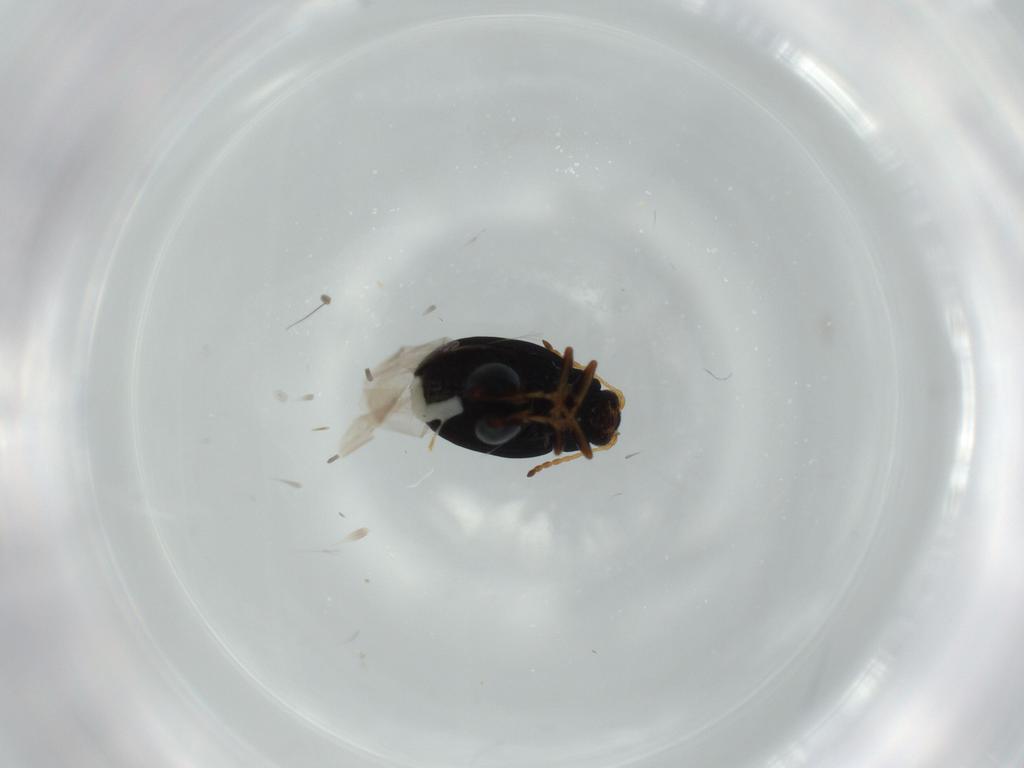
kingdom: Animalia
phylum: Arthropoda
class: Insecta
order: Coleoptera
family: Chrysomelidae
